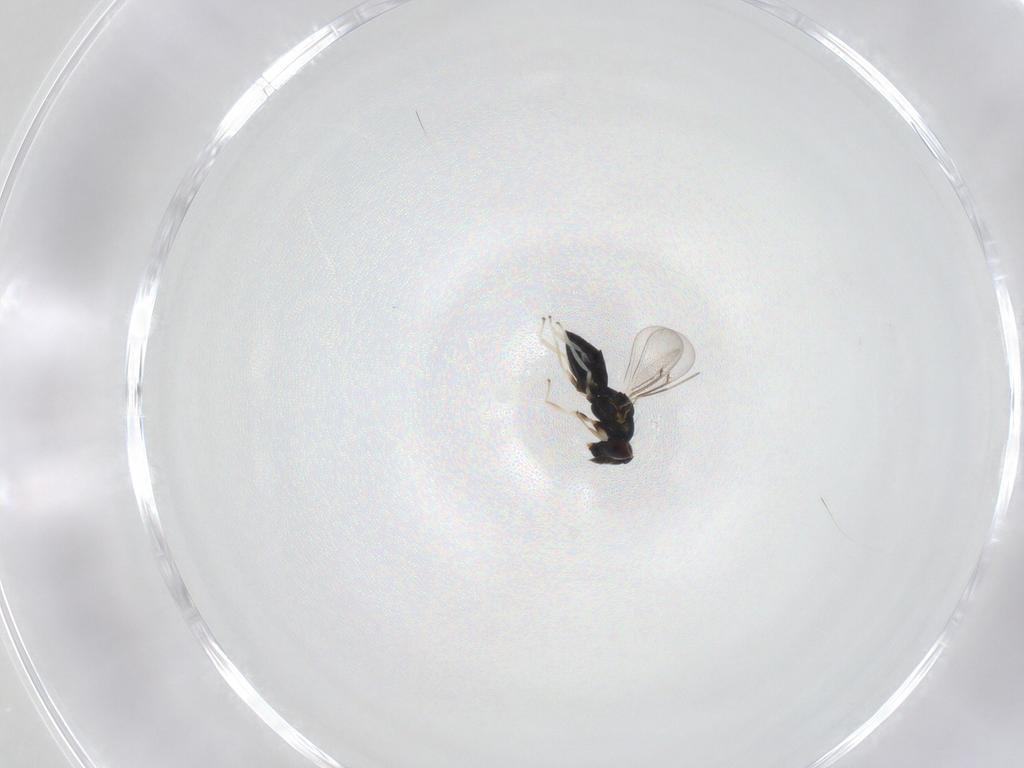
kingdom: Animalia
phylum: Arthropoda
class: Insecta
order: Hymenoptera
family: Eulophidae
